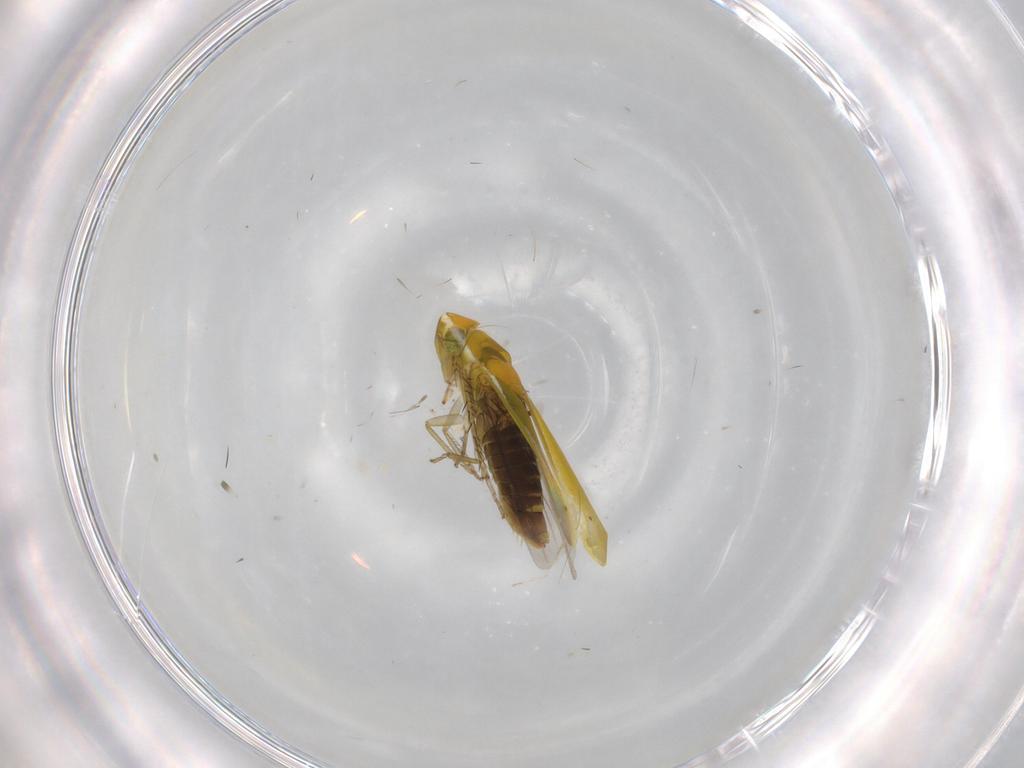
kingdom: Animalia
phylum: Arthropoda
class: Insecta
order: Hemiptera
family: Cicadellidae
